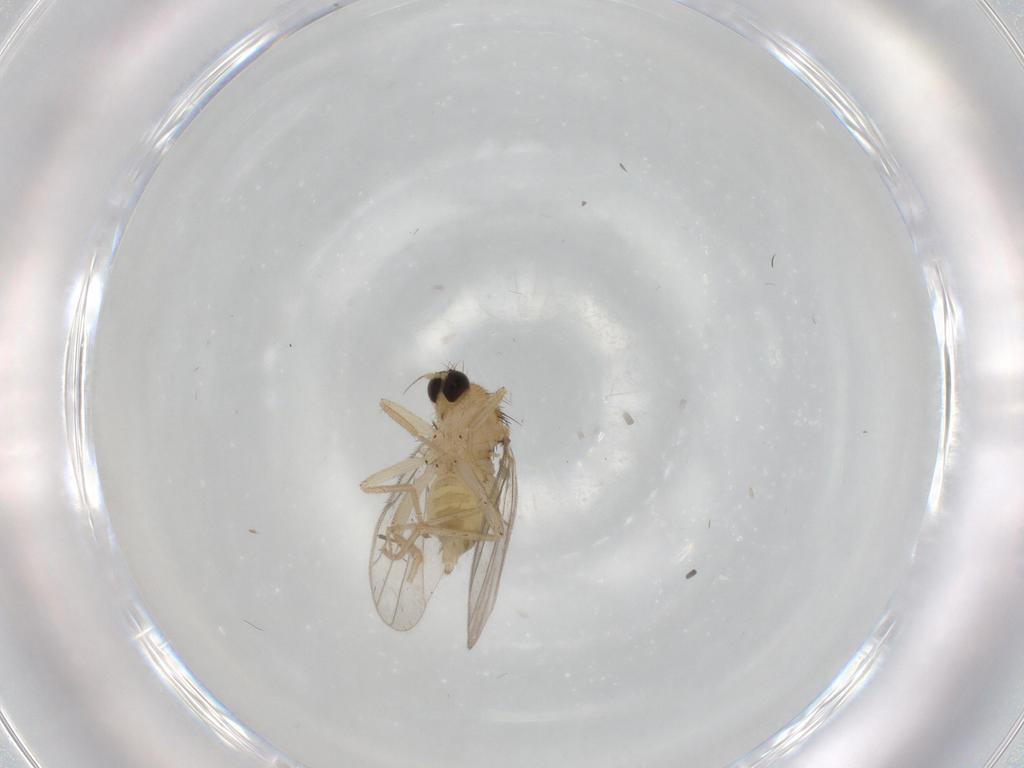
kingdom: Animalia
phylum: Arthropoda
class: Insecta
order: Diptera
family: Hybotidae
